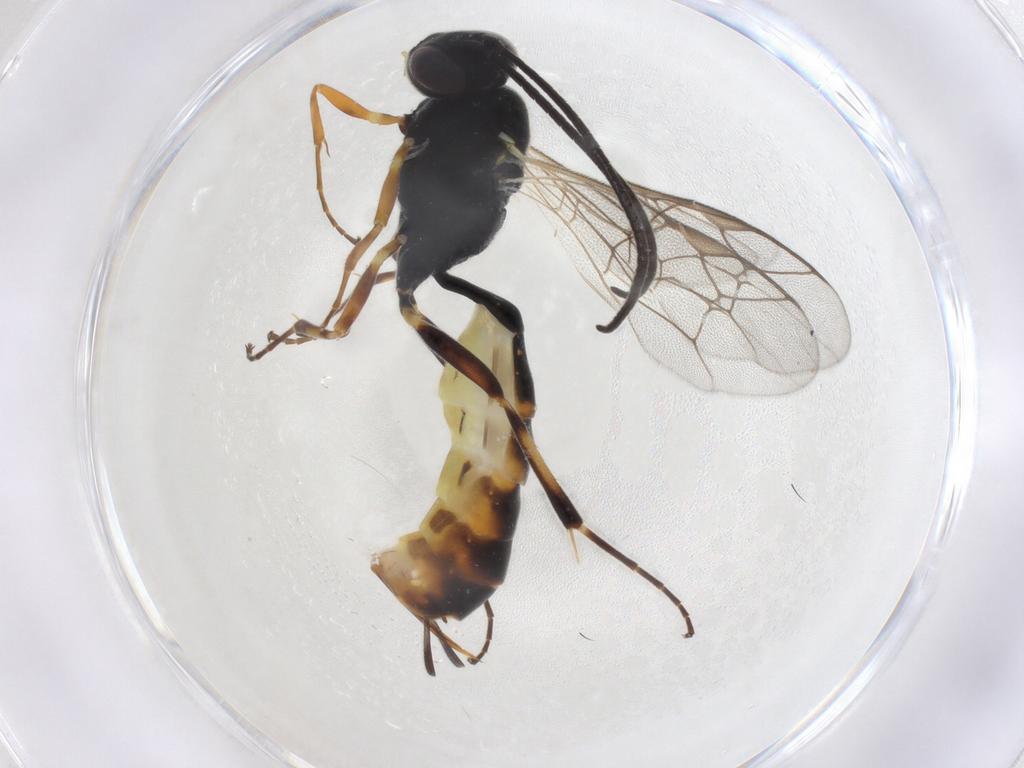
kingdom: Animalia
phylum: Arthropoda
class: Insecta
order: Hymenoptera
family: Ichneumonidae
